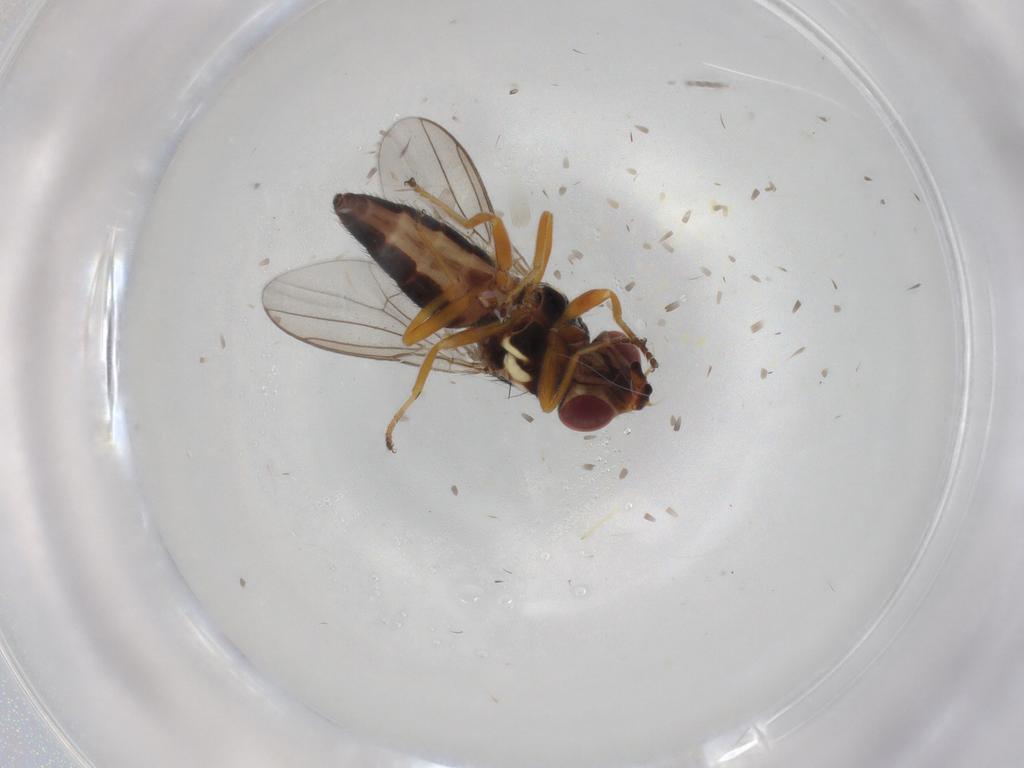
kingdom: Animalia
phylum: Arthropoda
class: Insecta
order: Diptera
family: Chloropidae
